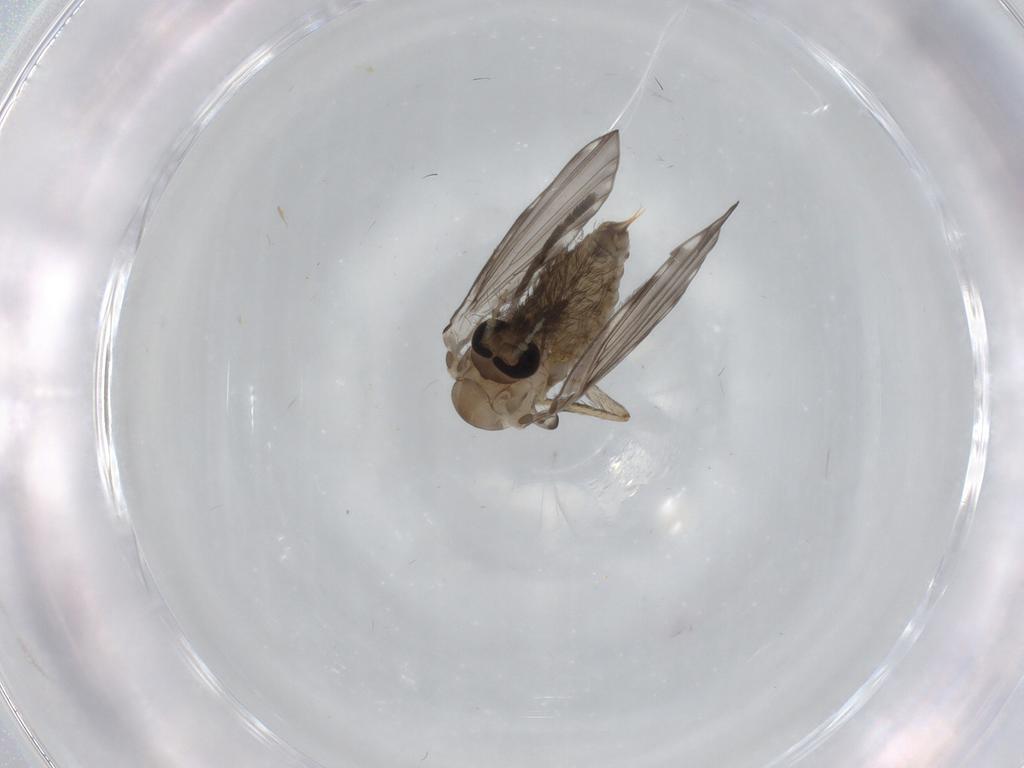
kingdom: Animalia
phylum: Arthropoda
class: Insecta
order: Diptera
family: Psychodidae
